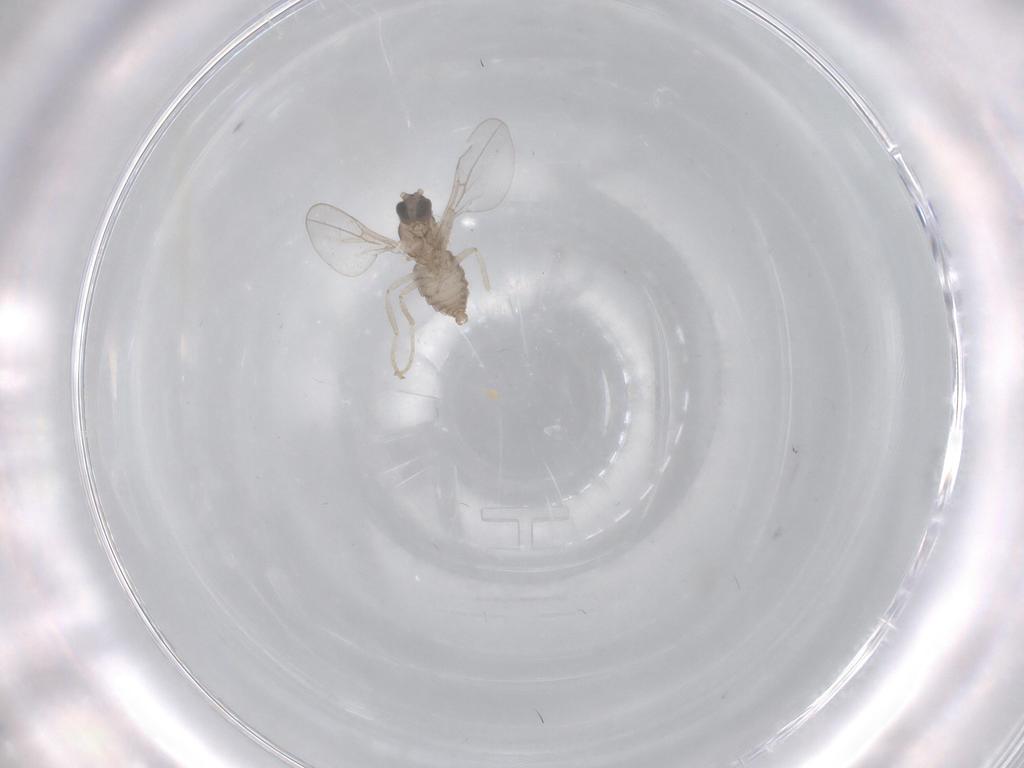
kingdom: Animalia
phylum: Arthropoda
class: Insecta
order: Diptera
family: Cecidomyiidae
